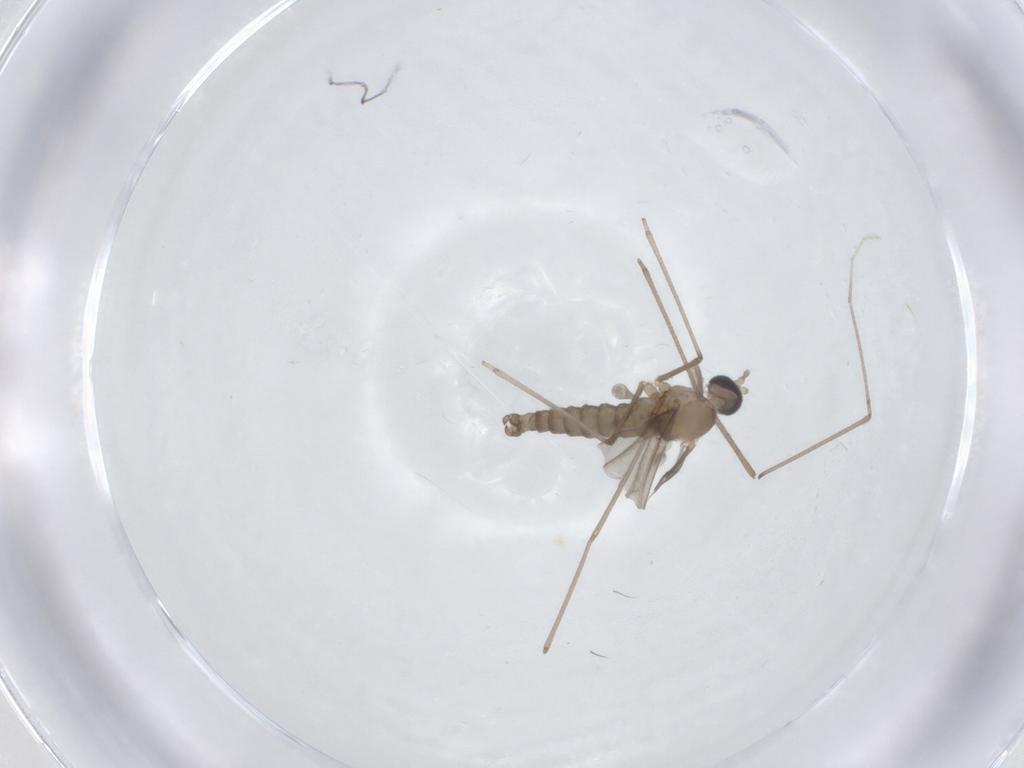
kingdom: Animalia
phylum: Arthropoda
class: Insecta
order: Diptera
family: Cecidomyiidae
